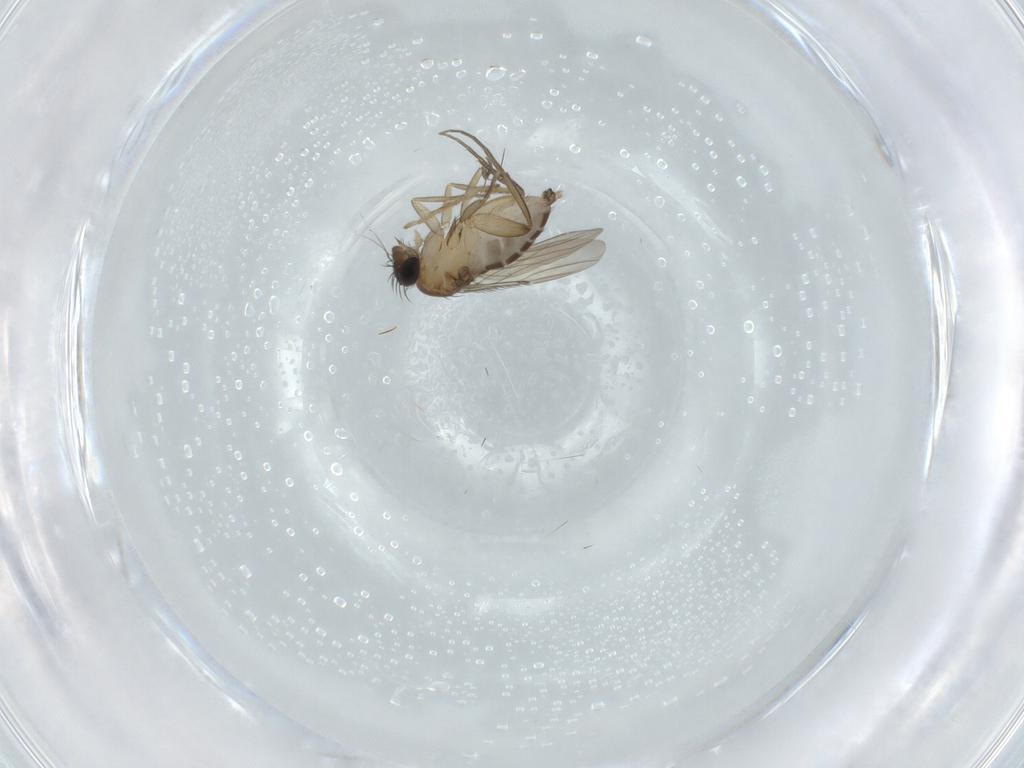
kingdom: Animalia
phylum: Arthropoda
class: Insecta
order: Diptera
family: Phoridae
